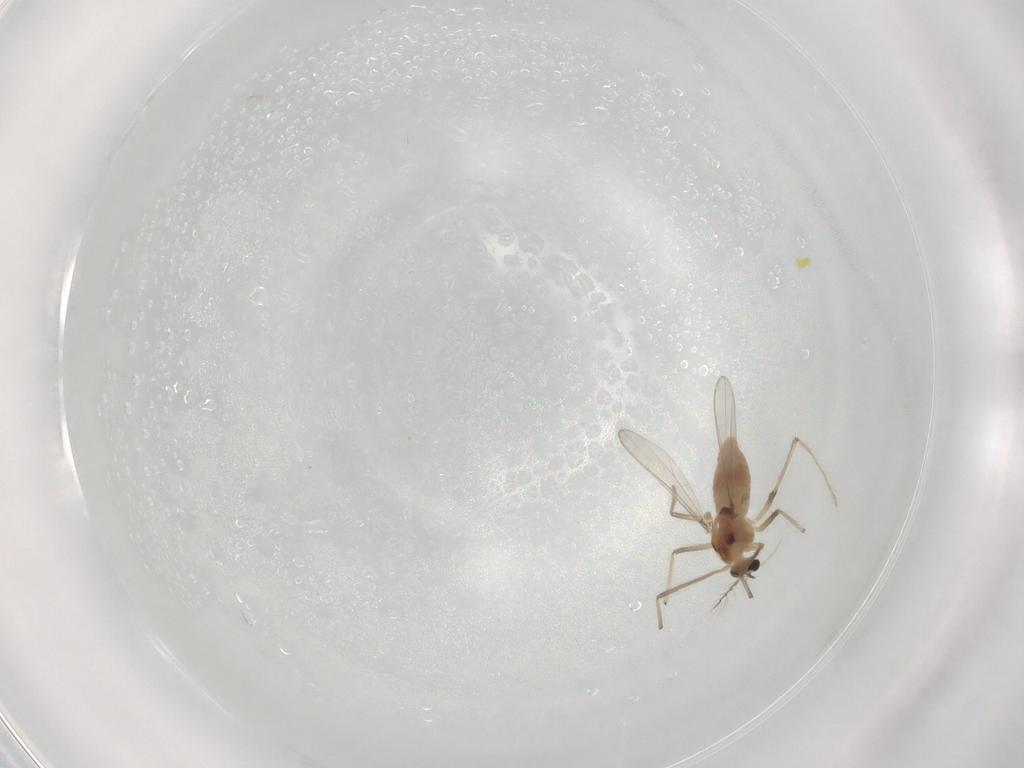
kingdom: Animalia
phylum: Arthropoda
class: Insecta
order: Diptera
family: Chironomidae
